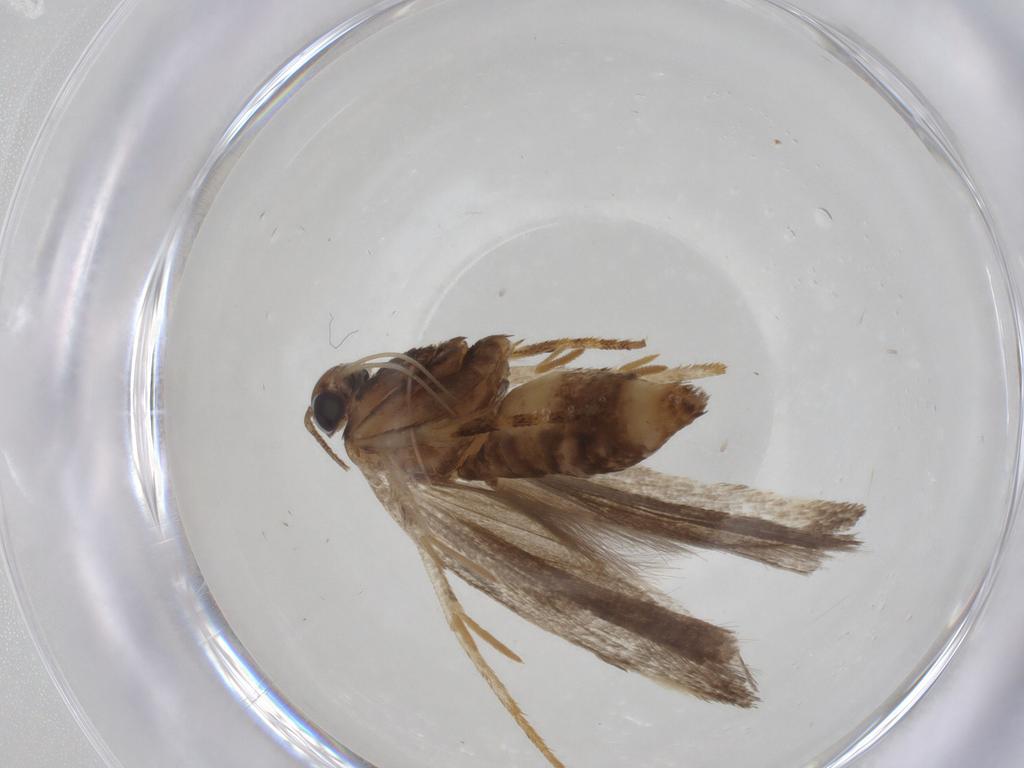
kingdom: Animalia
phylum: Arthropoda
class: Insecta
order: Lepidoptera
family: Gelechiidae
